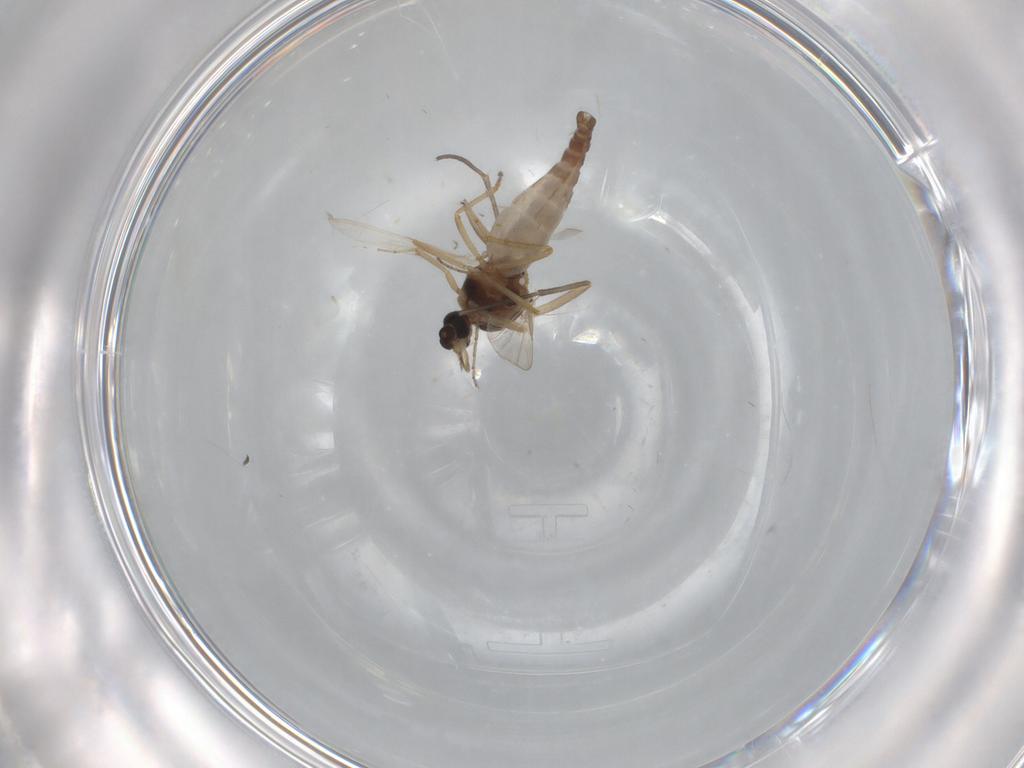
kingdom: Animalia
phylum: Arthropoda
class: Insecta
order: Diptera
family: Ceratopogonidae
